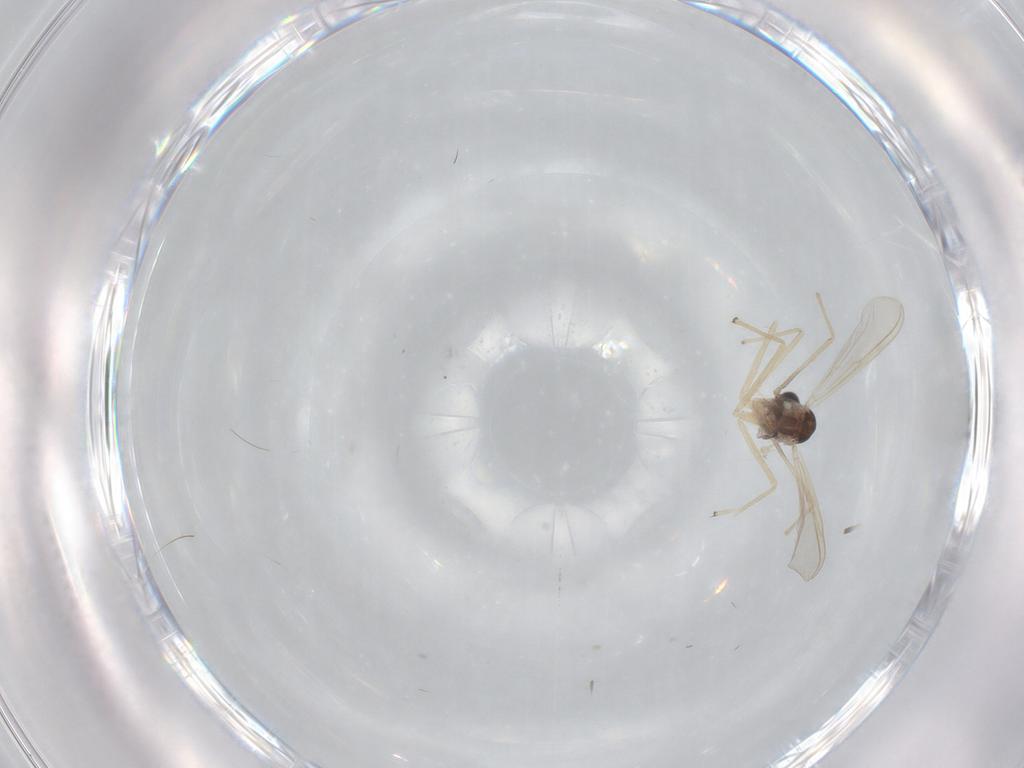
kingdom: Animalia
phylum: Arthropoda
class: Insecta
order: Diptera
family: Chironomidae
